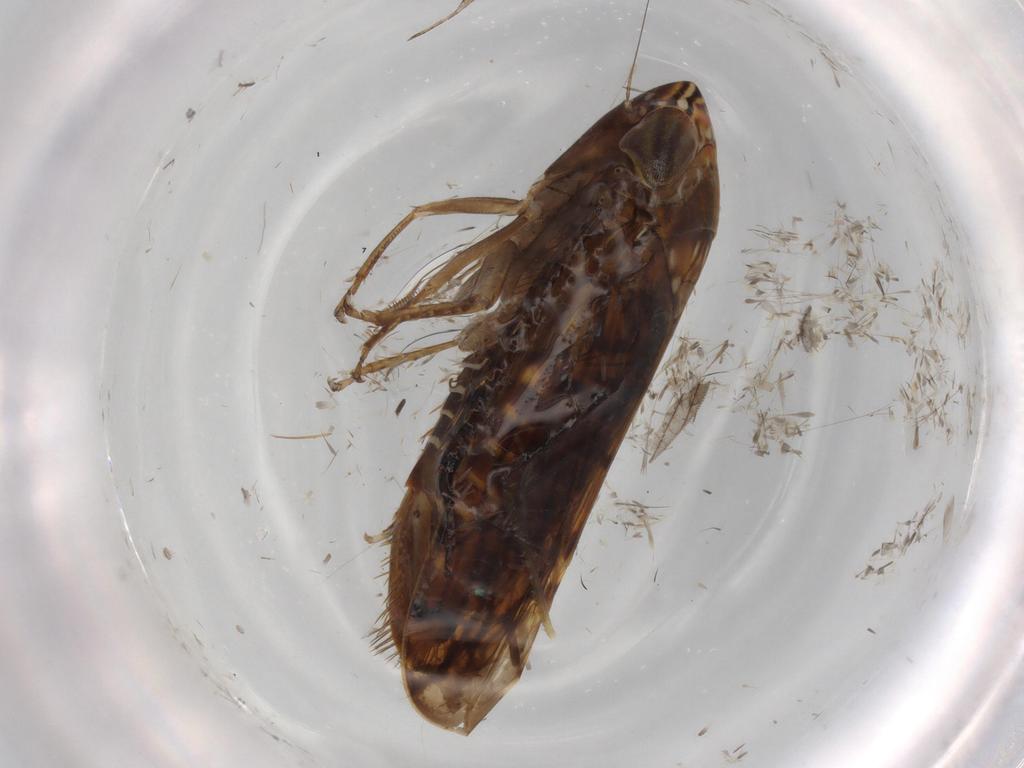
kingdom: Animalia
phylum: Arthropoda
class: Insecta
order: Hemiptera
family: Cicadellidae
